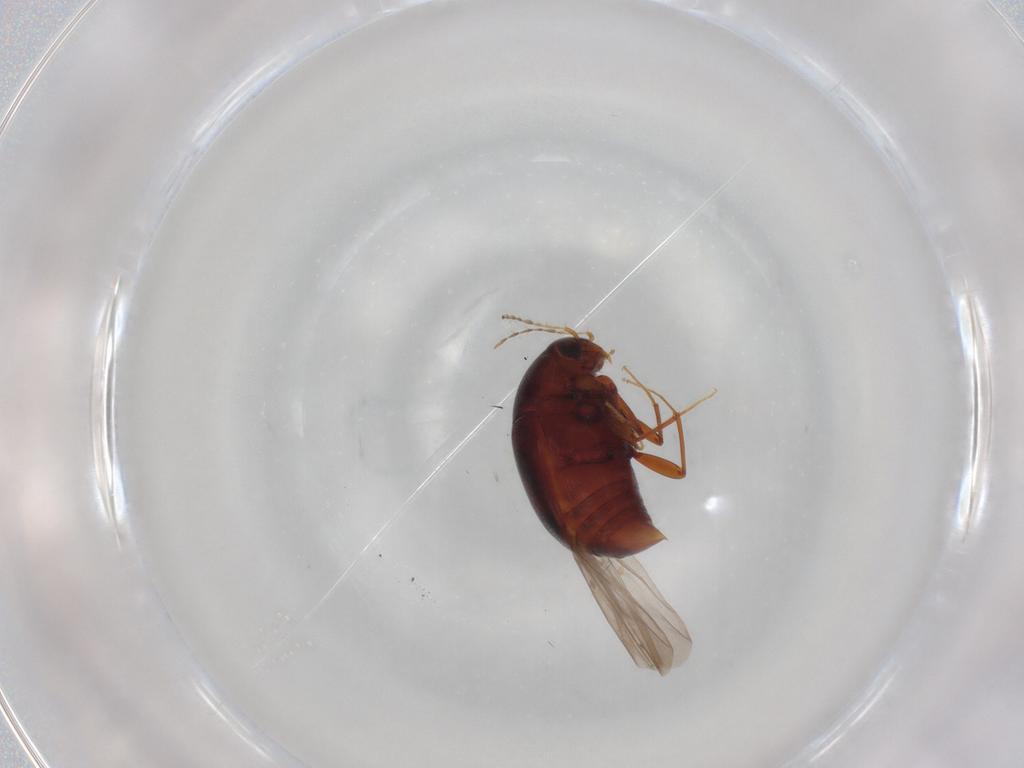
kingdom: Animalia
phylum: Arthropoda
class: Insecta
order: Coleoptera
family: Staphylinidae
